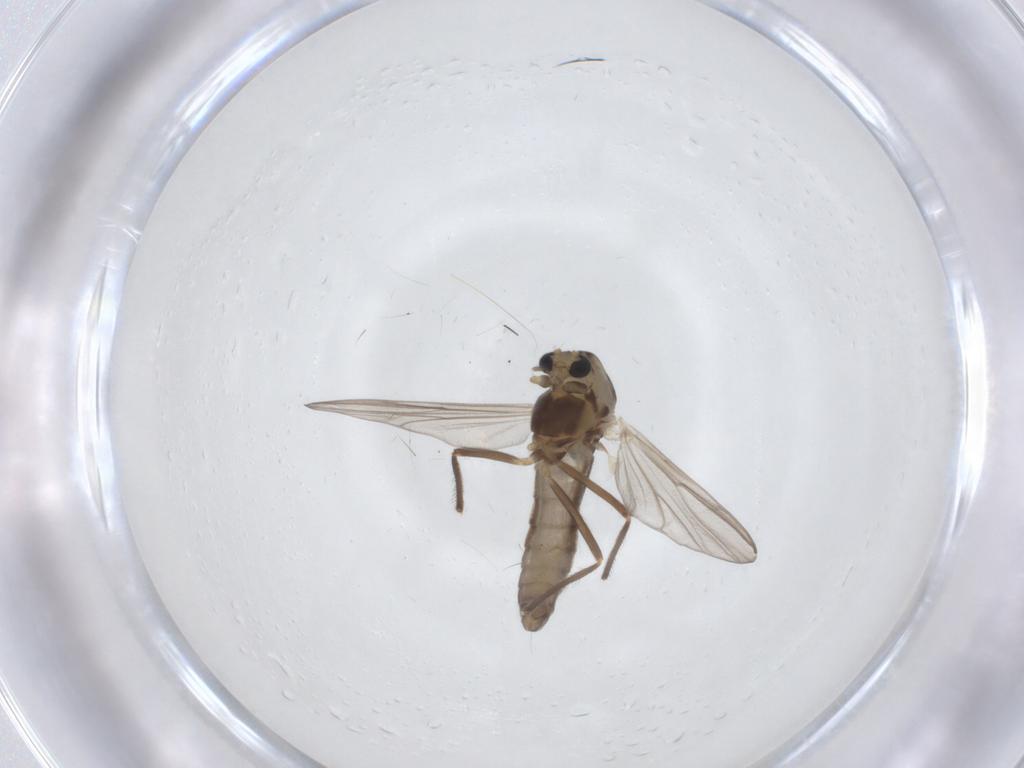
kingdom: Animalia
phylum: Arthropoda
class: Insecta
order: Diptera
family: Chironomidae
